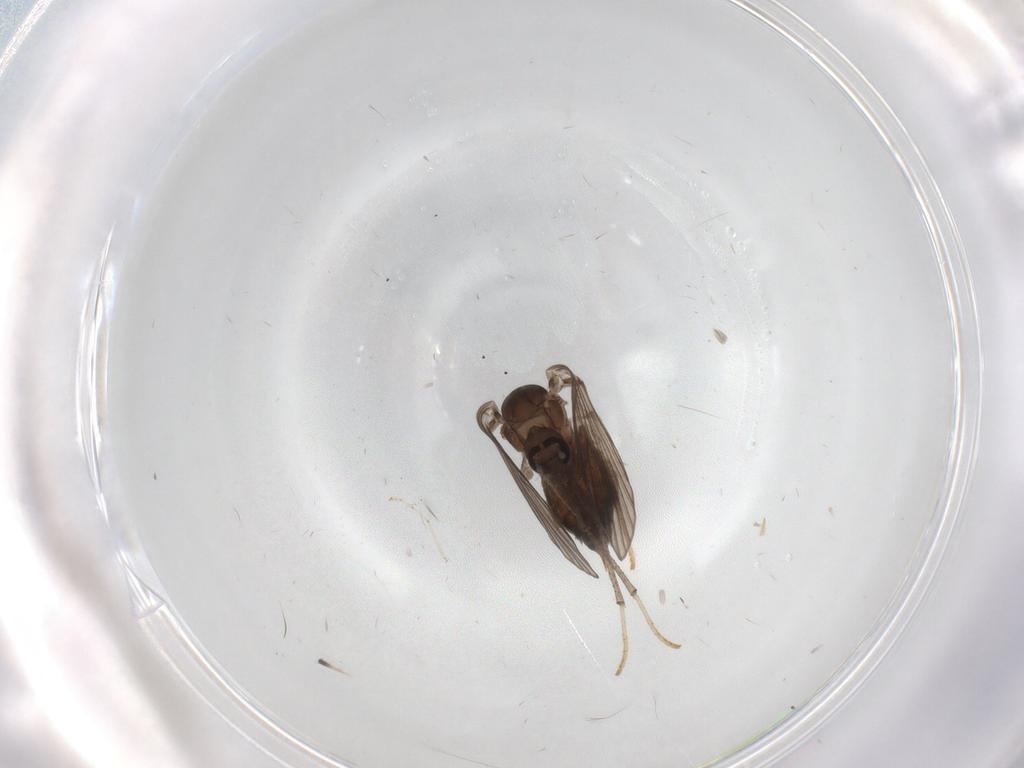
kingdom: Animalia
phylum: Arthropoda
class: Insecta
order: Diptera
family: Psychodidae
